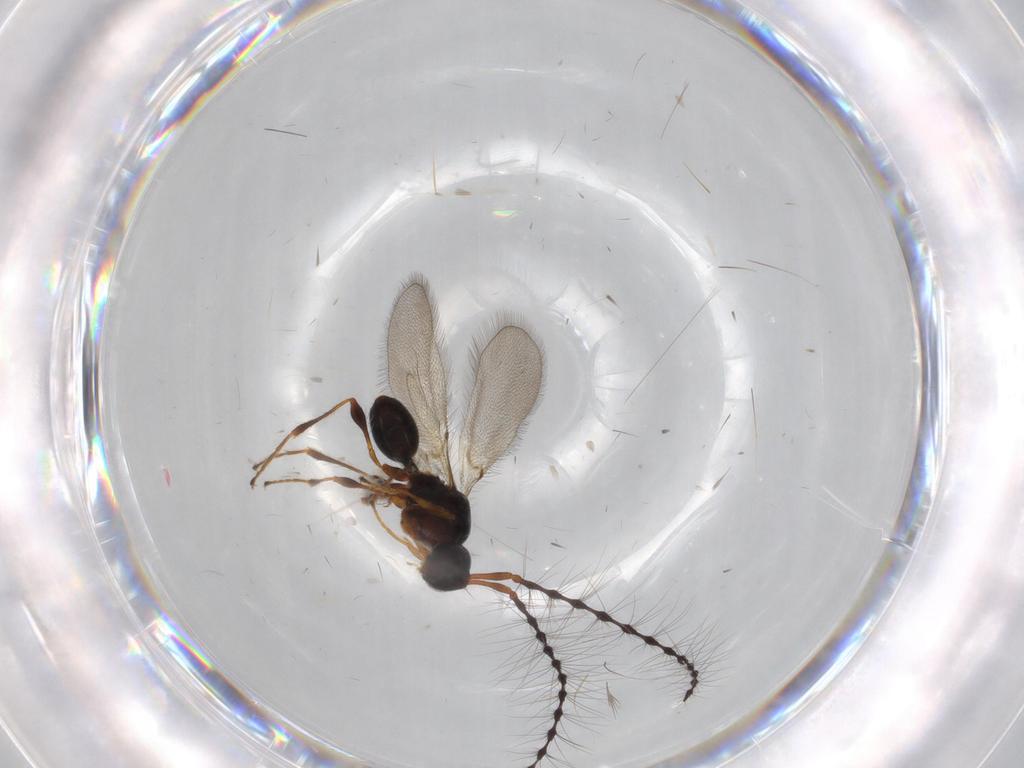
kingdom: Animalia
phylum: Arthropoda
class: Insecta
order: Hymenoptera
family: Diapriidae
